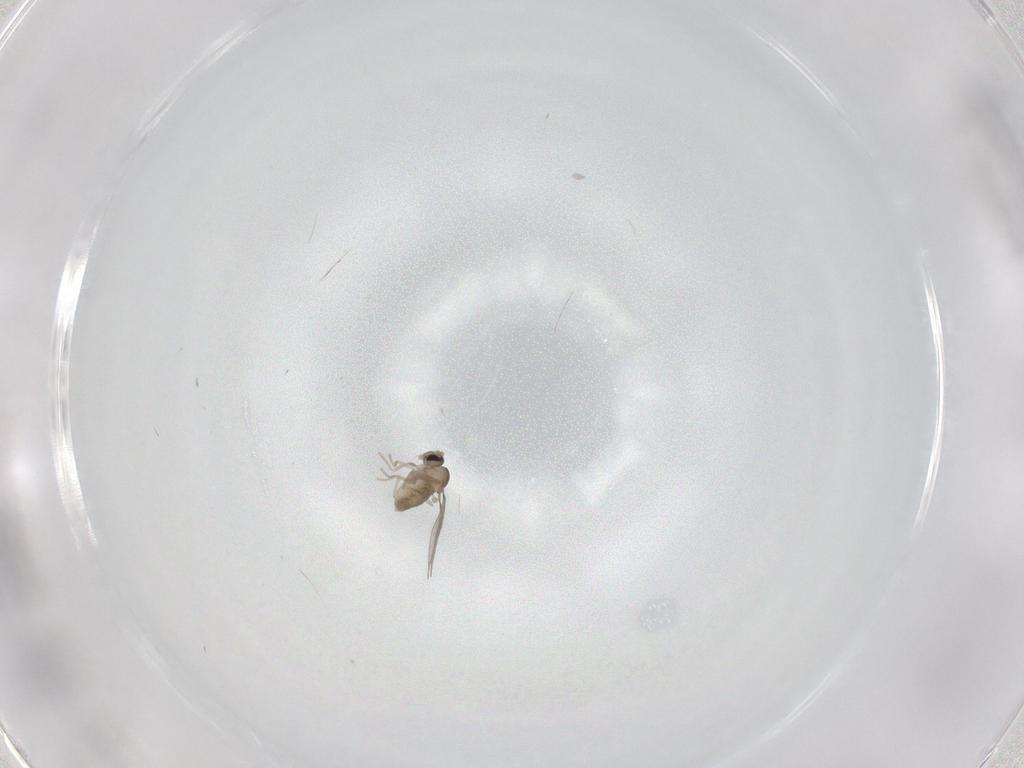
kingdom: Animalia
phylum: Arthropoda
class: Insecta
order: Diptera
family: Cecidomyiidae
